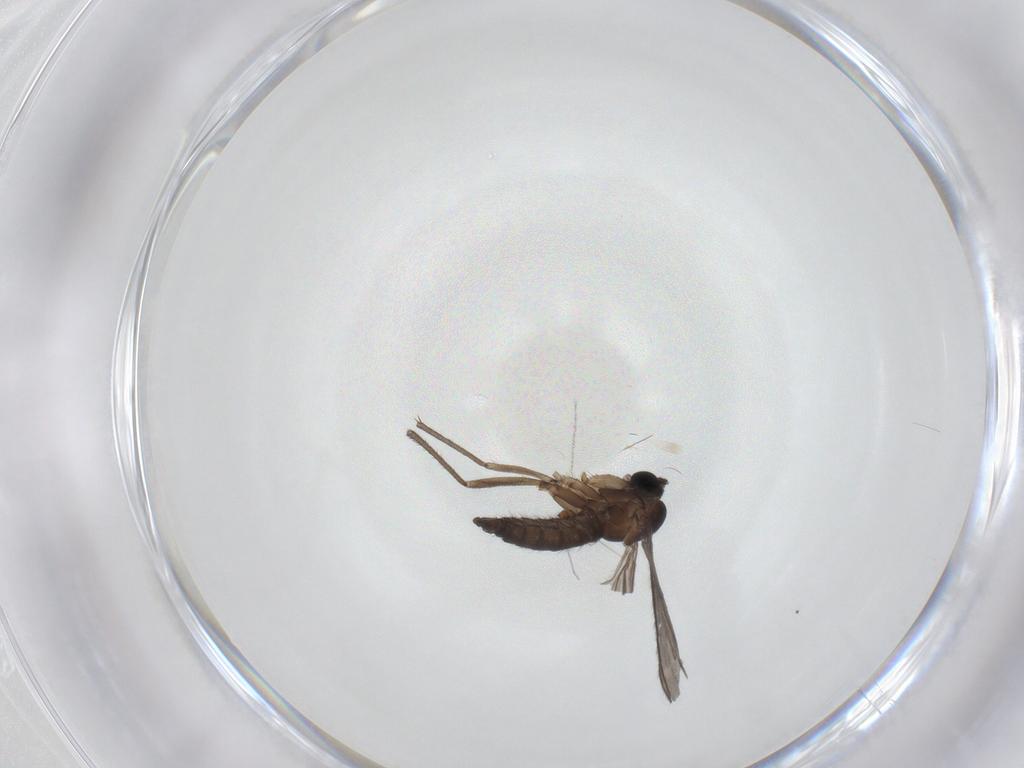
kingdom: Animalia
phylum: Arthropoda
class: Insecta
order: Diptera
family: Sciaridae
